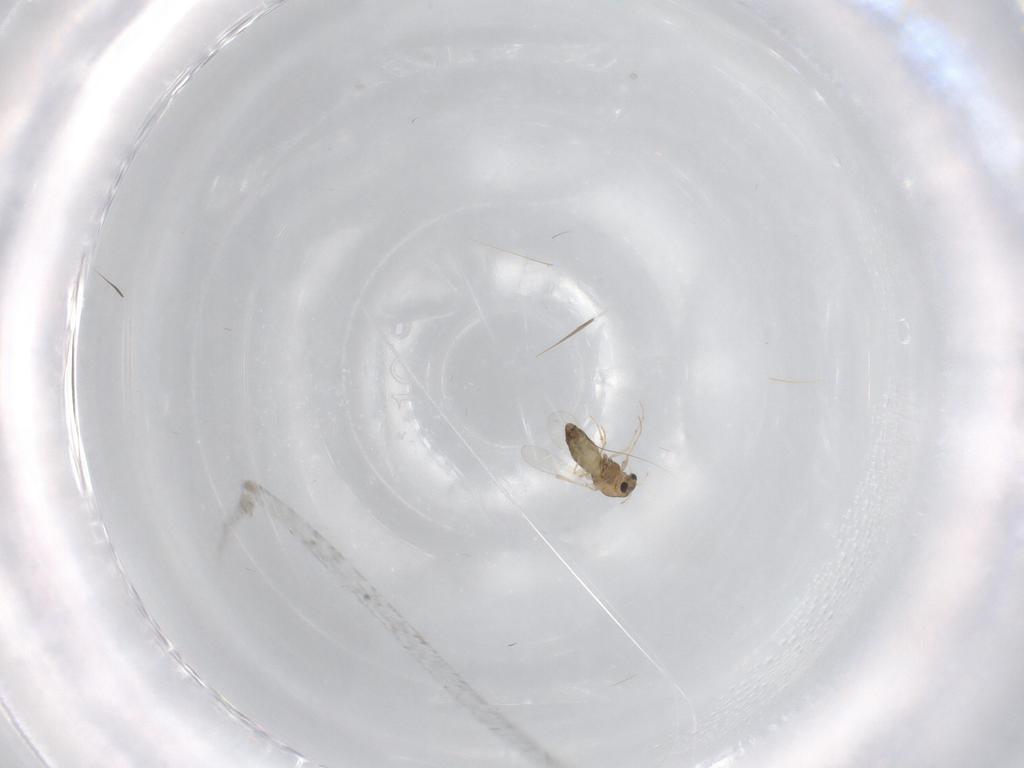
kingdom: Animalia
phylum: Arthropoda
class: Insecta
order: Diptera
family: Chironomidae
